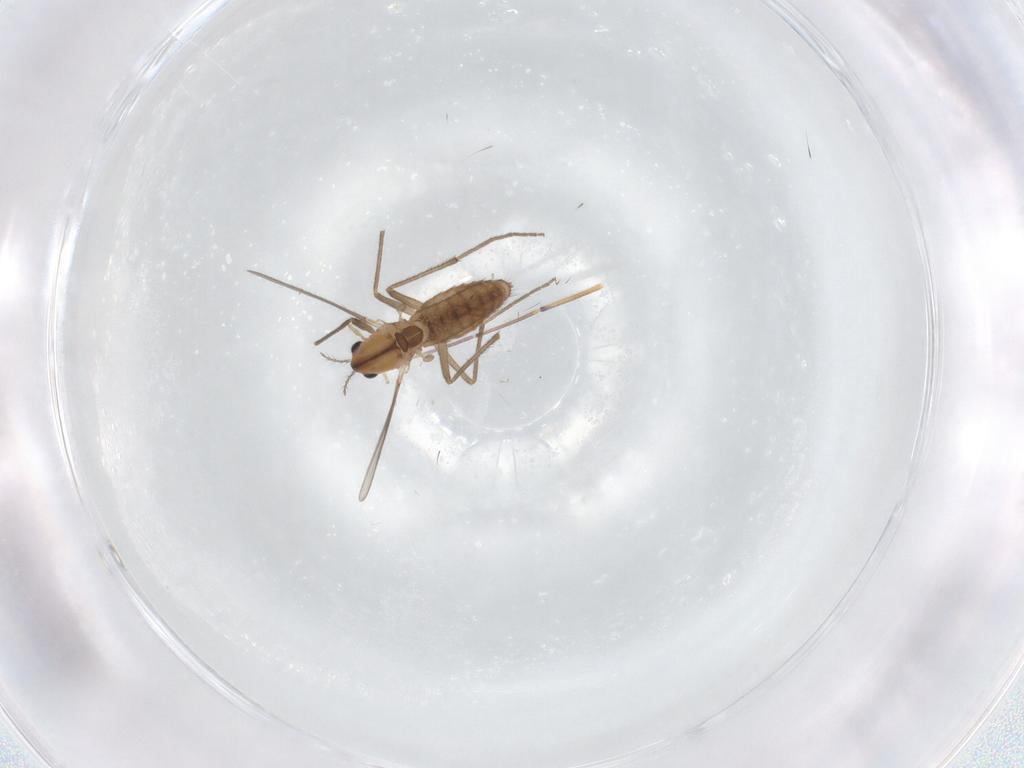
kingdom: Animalia
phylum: Arthropoda
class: Insecta
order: Diptera
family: Chironomidae
